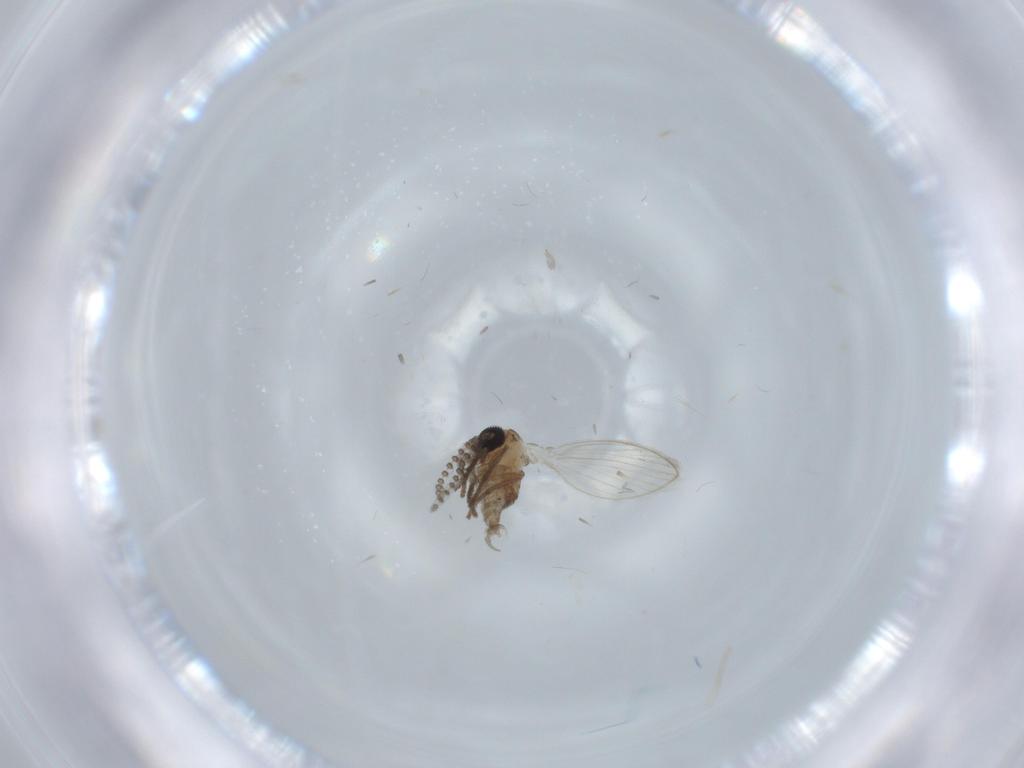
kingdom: Animalia
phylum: Arthropoda
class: Insecta
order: Diptera
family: Psychodidae
